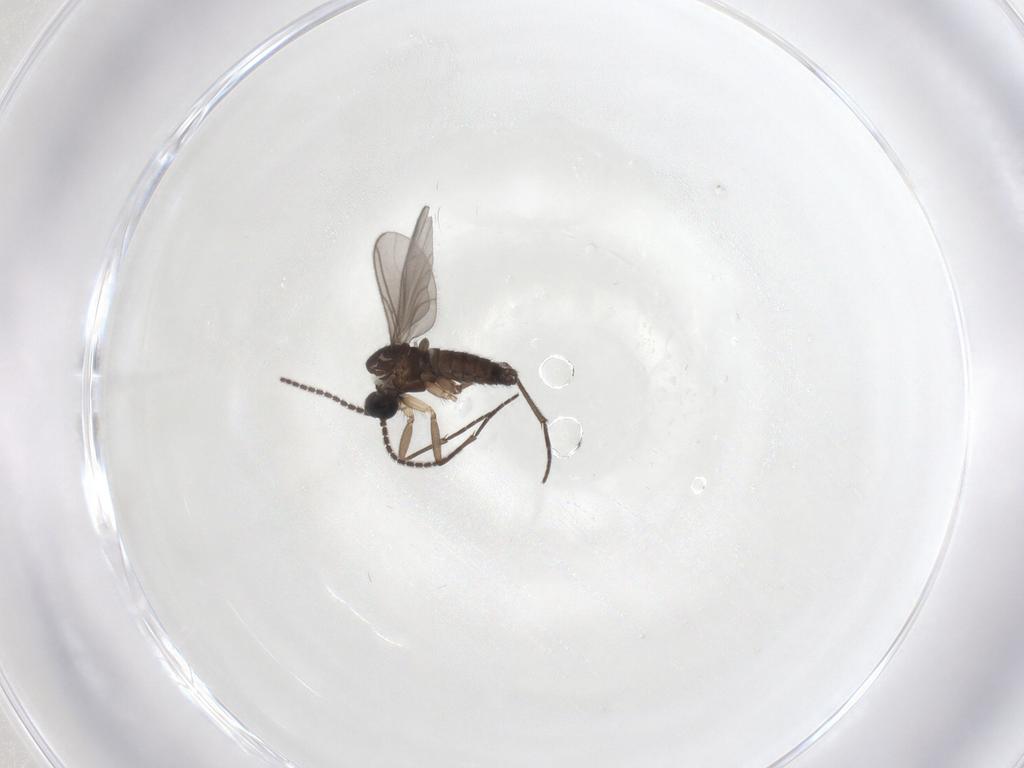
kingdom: Animalia
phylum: Arthropoda
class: Insecta
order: Diptera
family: Sciaridae
